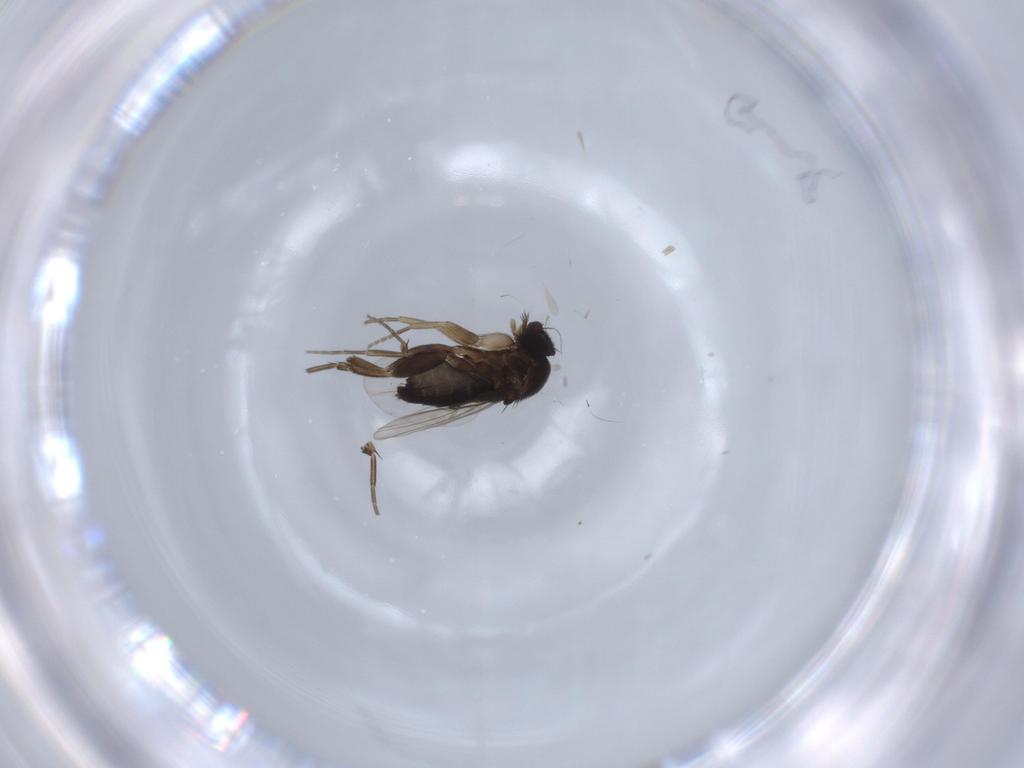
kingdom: Animalia
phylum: Arthropoda
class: Insecta
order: Diptera
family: Phoridae
